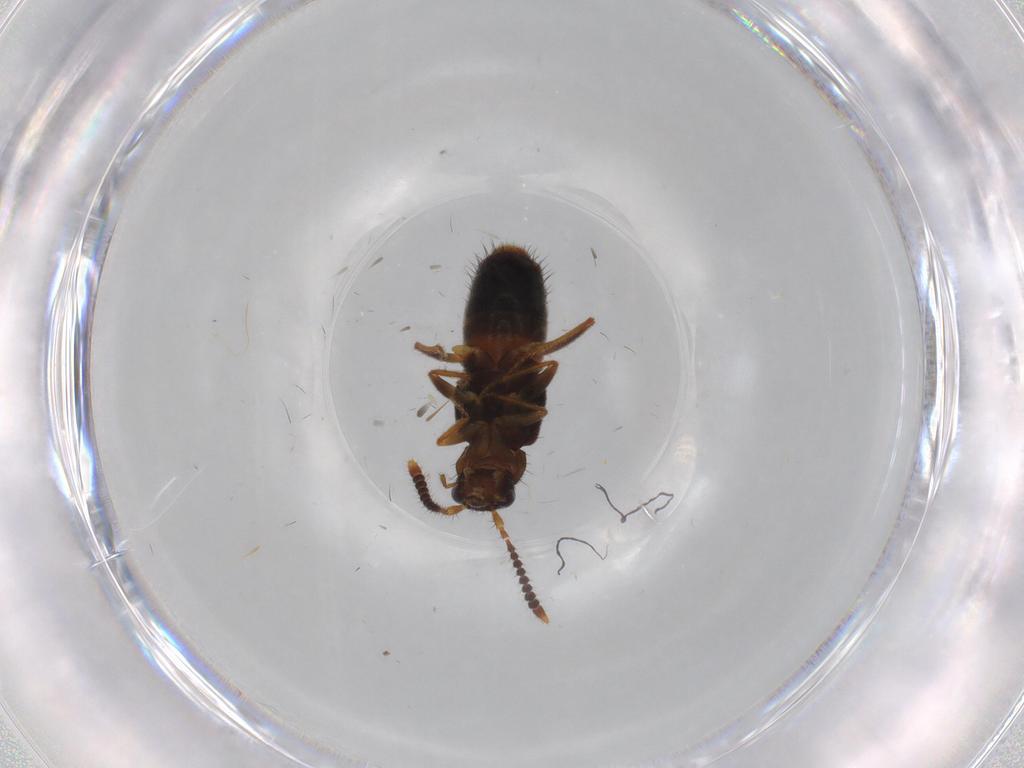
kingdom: Animalia
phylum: Arthropoda
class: Insecta
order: Coleoptera
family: Staphylinidae
